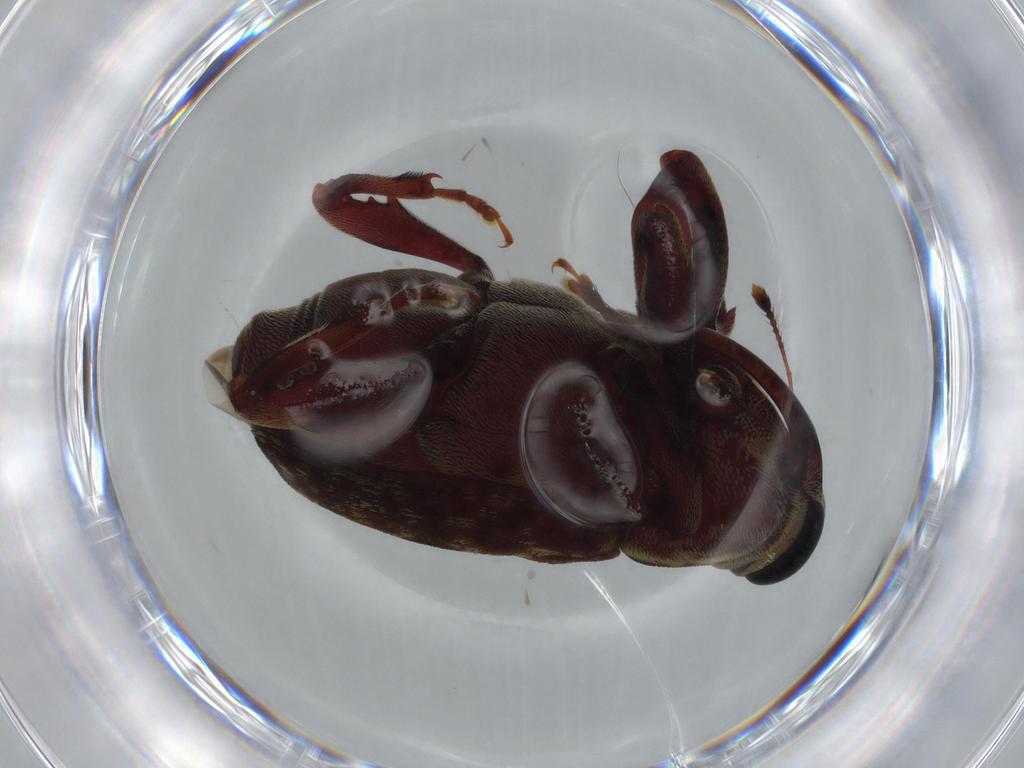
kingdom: Animalia
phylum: Arthropoda
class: Insecta
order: Coleoptera
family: Curculionidae
